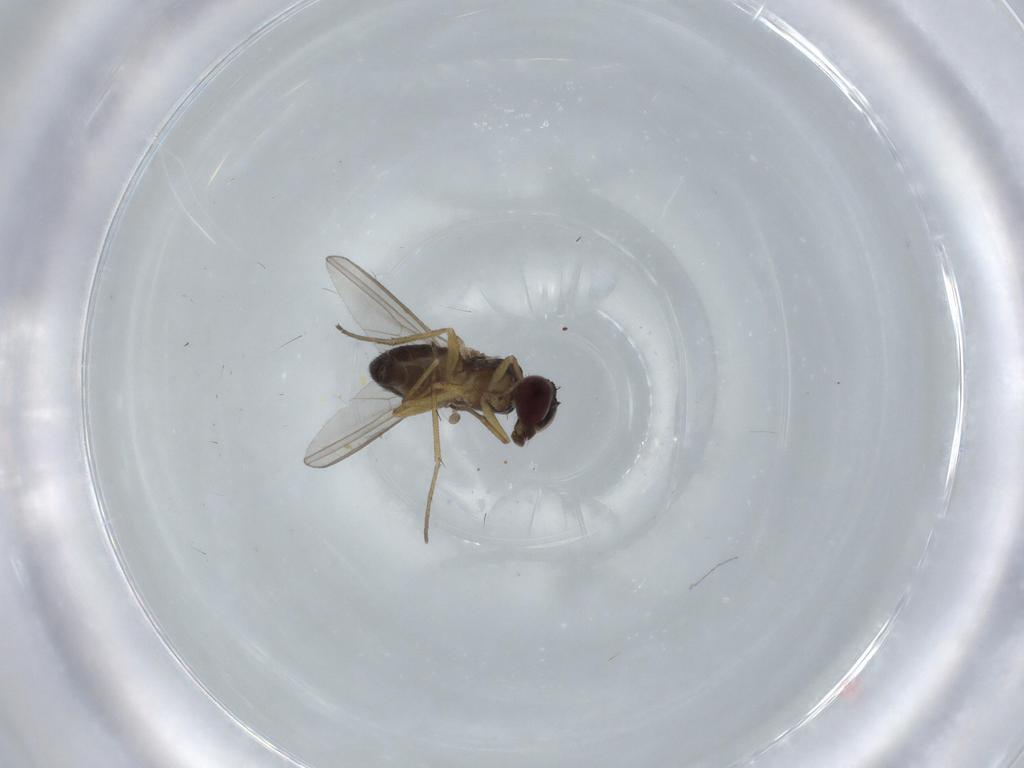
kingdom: Animalia
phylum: Arthropoda
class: Insecta
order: Diptera
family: Dolichopodidae
